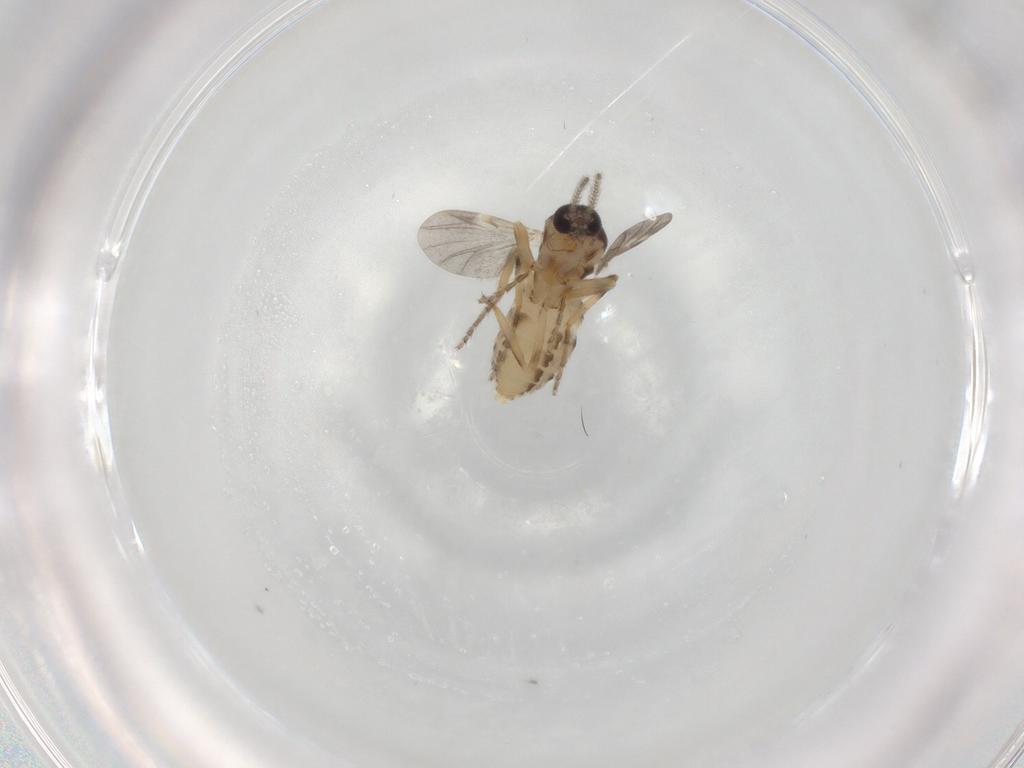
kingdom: Animalia
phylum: Arthropoda
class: Insecta
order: Diptera
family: Ceratopogonidae
